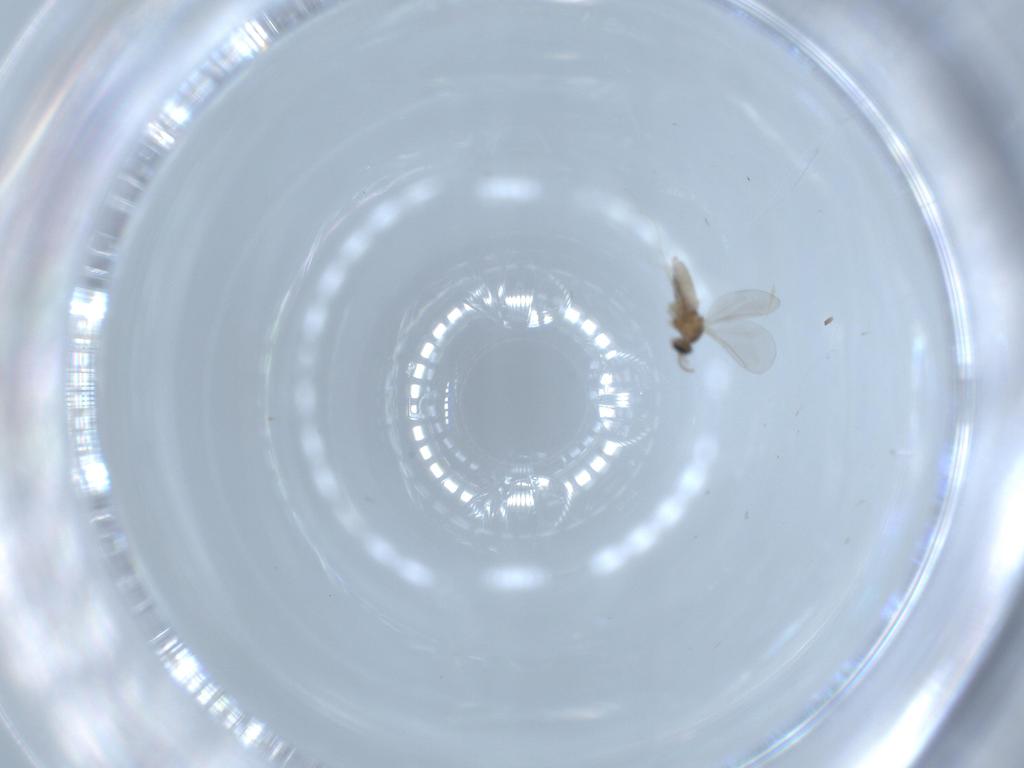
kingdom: Animalia
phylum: Arthropoda
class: Insecta
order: Diptera
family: Cecidomyiidae
